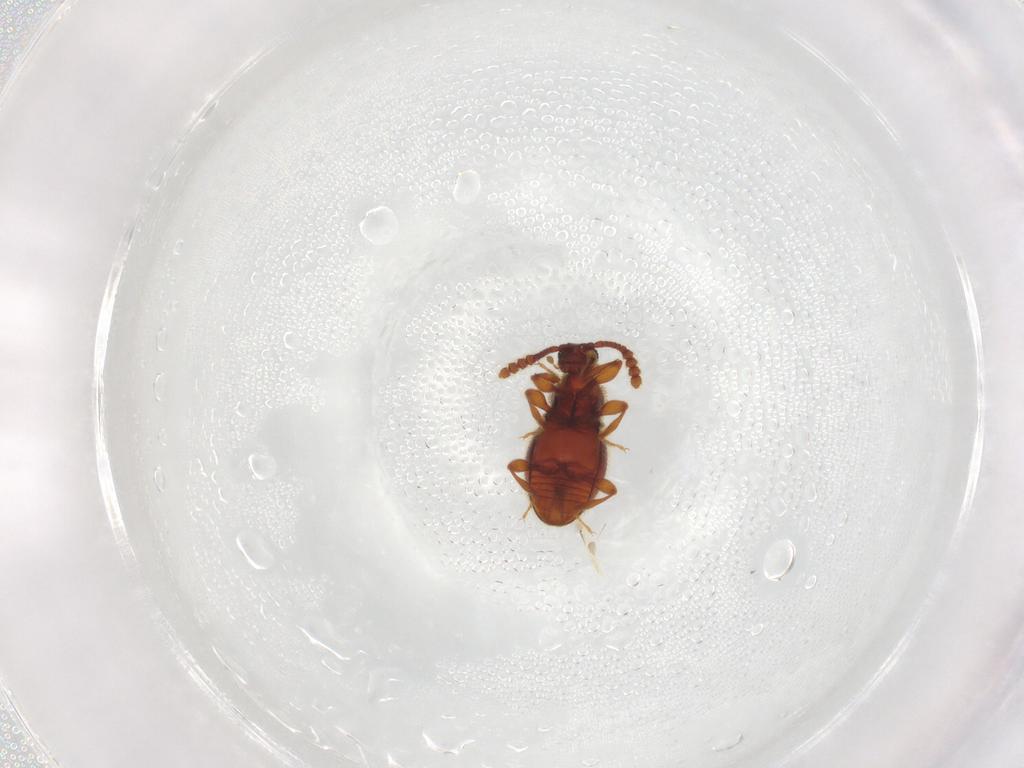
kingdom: Animalia
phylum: Arthropoda
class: Insecta
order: Coleoptera
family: Staphylinidae
